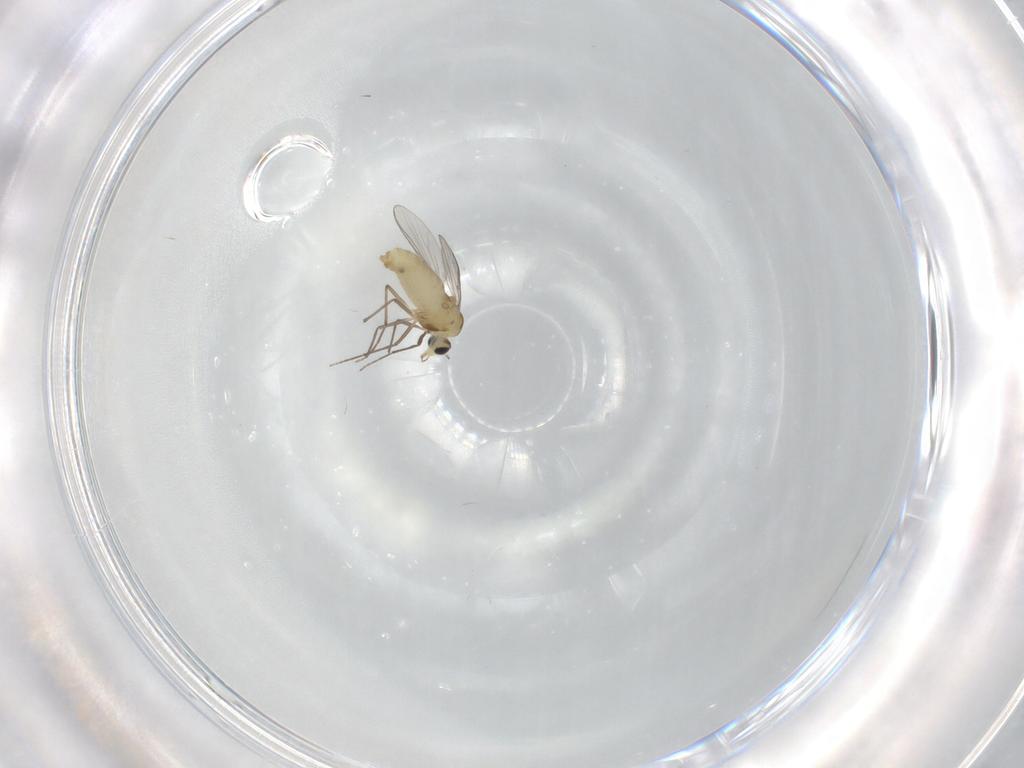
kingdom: Animalia
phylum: Arthropoda
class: Insecta
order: Diptera
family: Chironomidae
